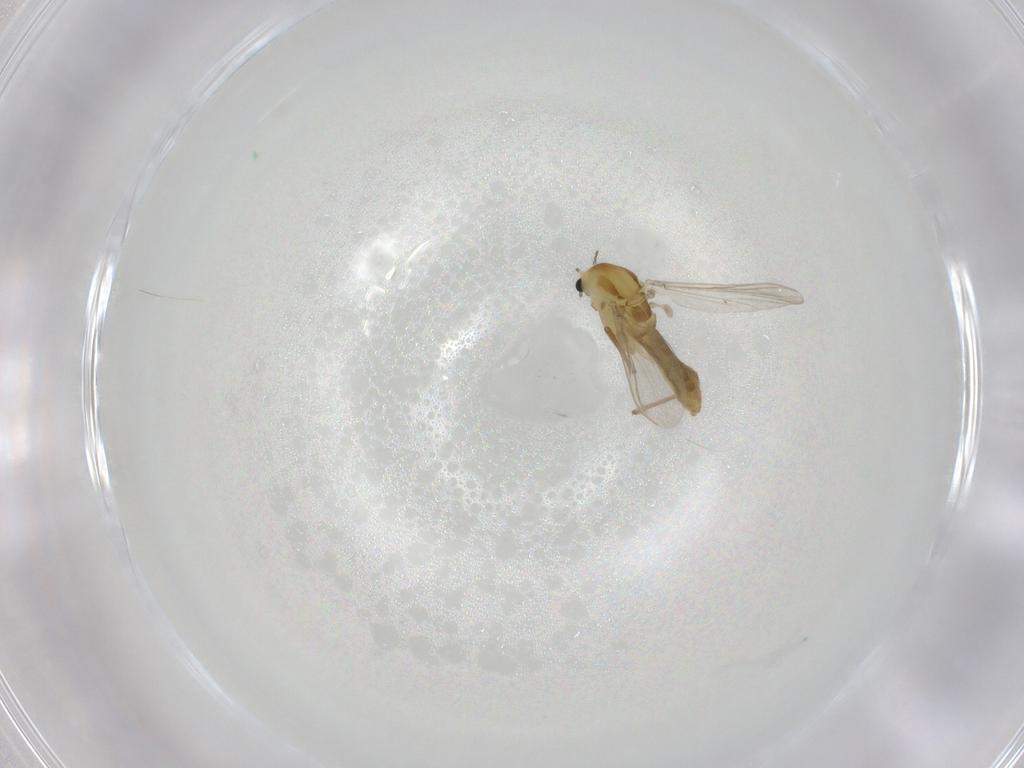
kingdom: Animalia
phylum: Arthropoda
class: Insecta
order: Diptera
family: Chironomidae
